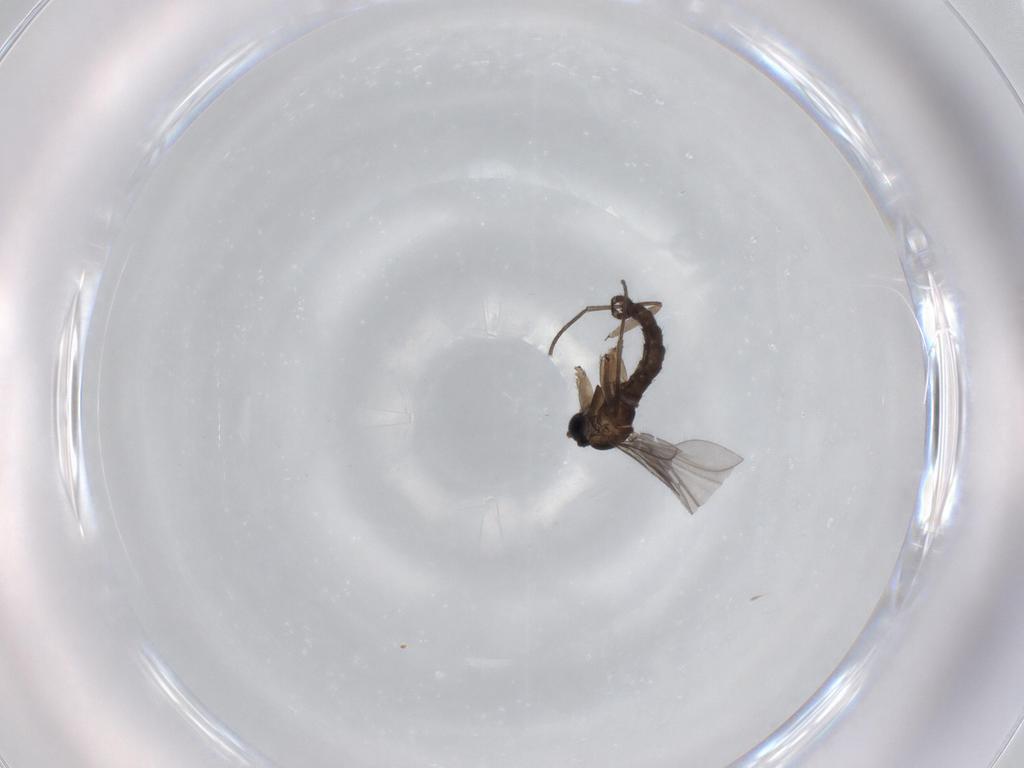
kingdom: Animalia
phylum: Arthropoda
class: Insecta
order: Diptera
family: Sciaridae
